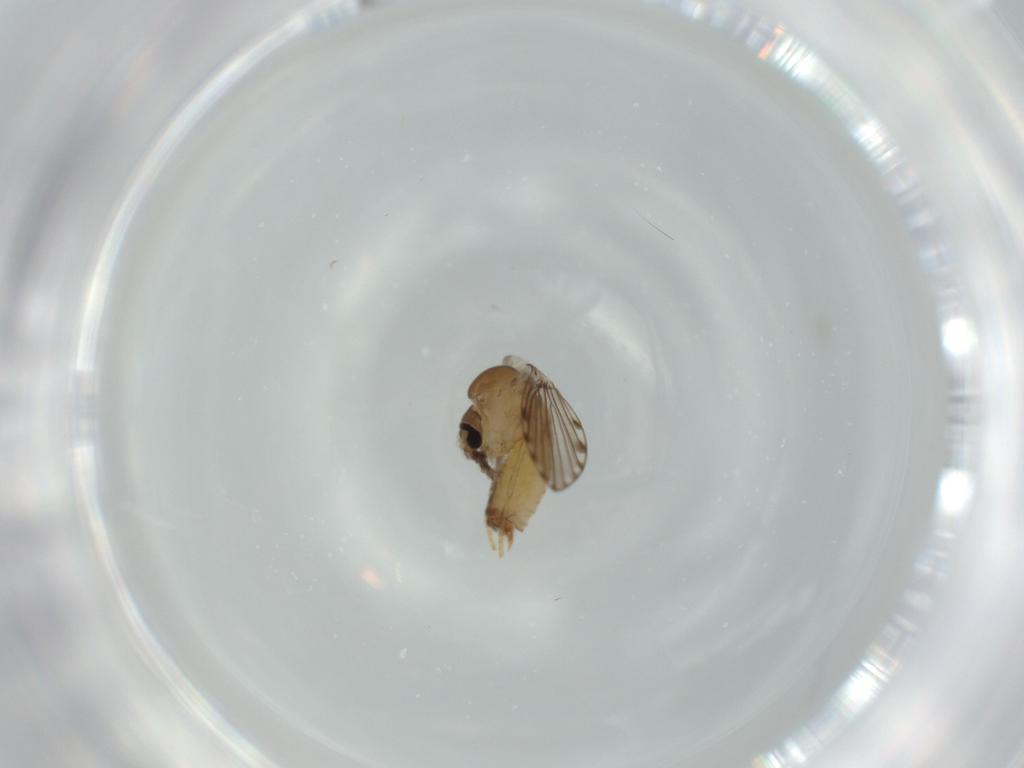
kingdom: Animalia
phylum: Arthropoda
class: Insecta
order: Diptera
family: Psychodidae
